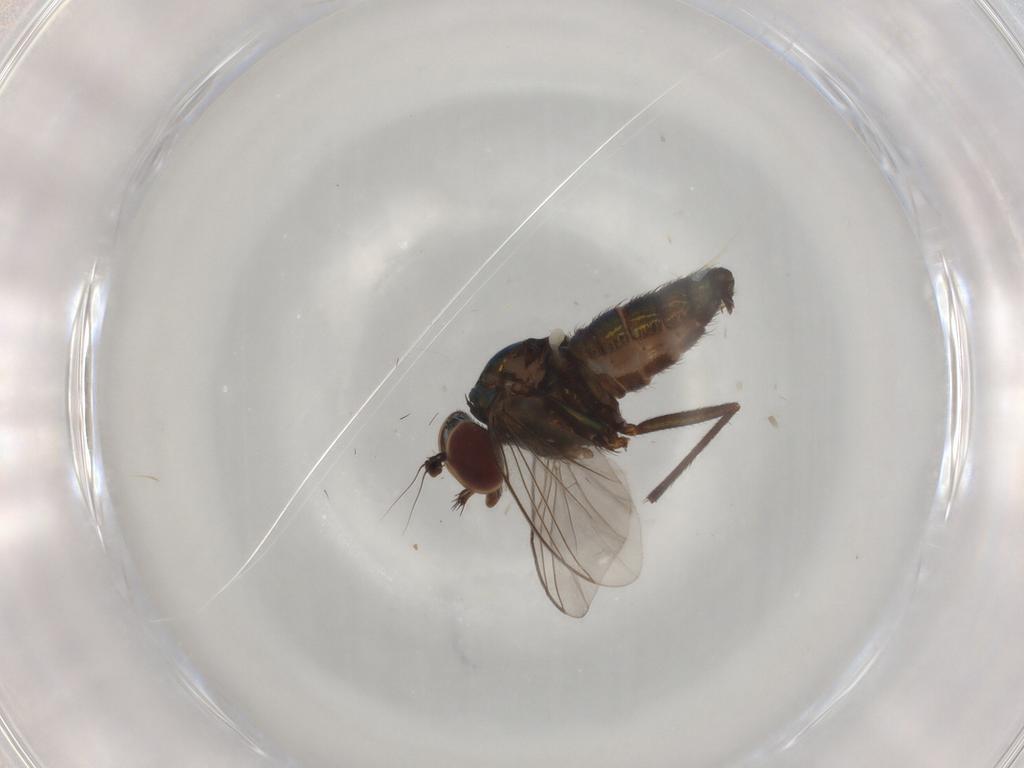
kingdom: Animalia
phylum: Arthropoda
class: Insecta
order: Diptera
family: Dolichopodidae
